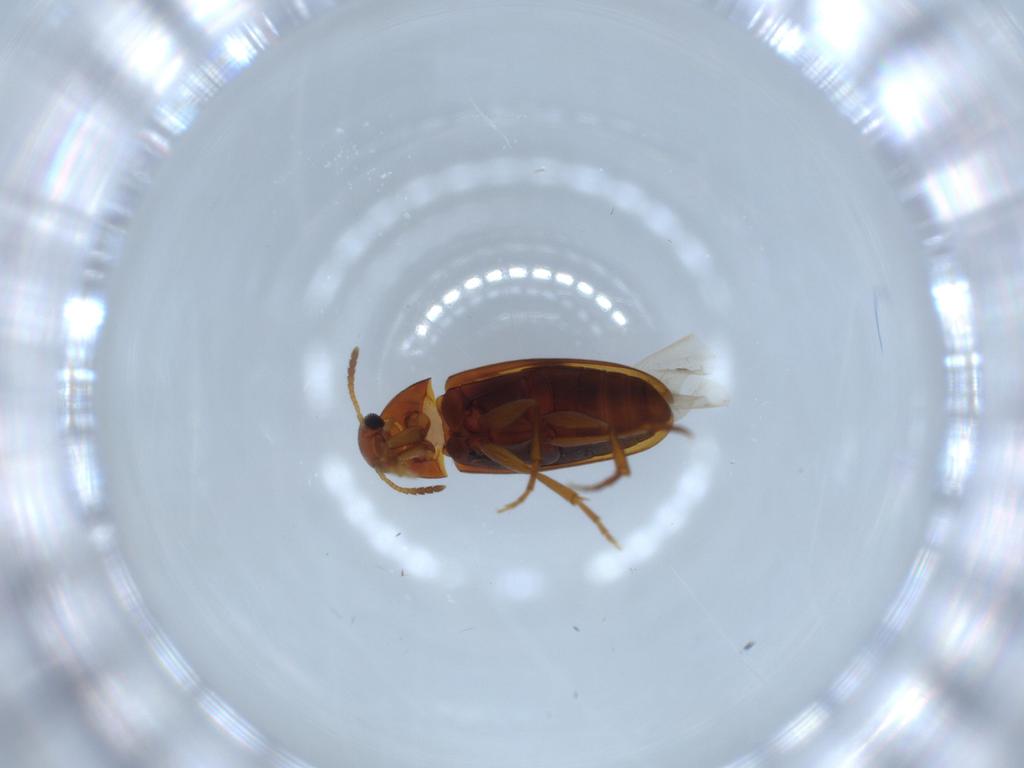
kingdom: Animalia
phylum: Arthropoda
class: Insecta
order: Coleoptera
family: Scraptiidae
